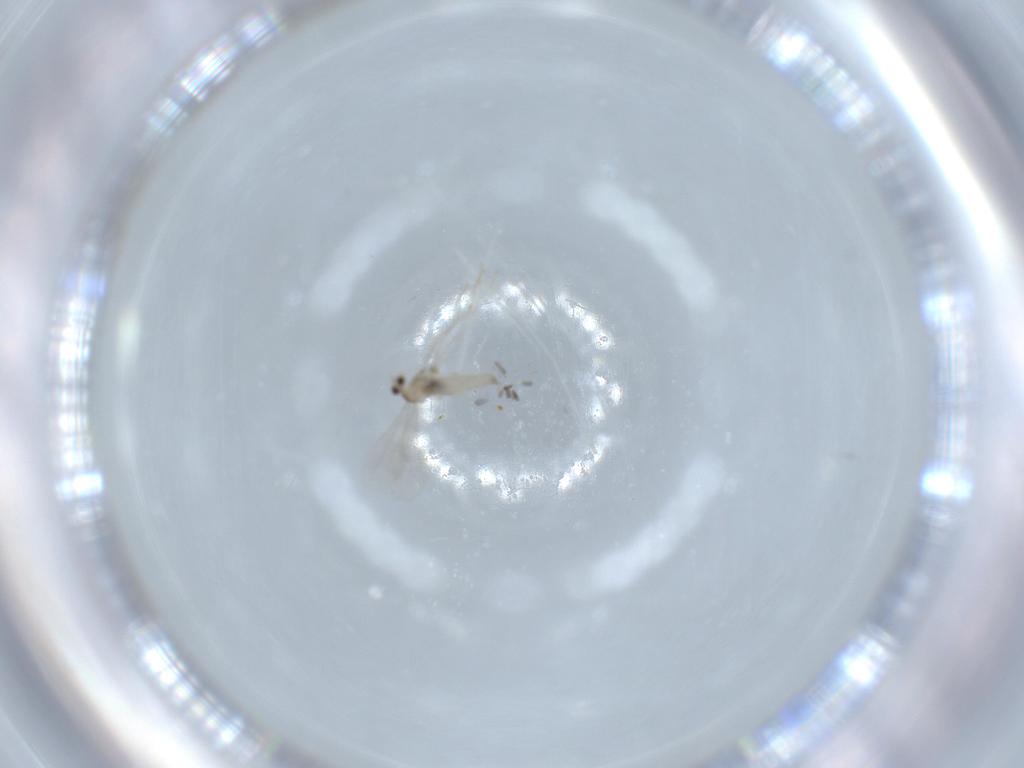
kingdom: Animalia
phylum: Arthropoda
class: Insecta
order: Diptera
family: Cecidomyiidae
